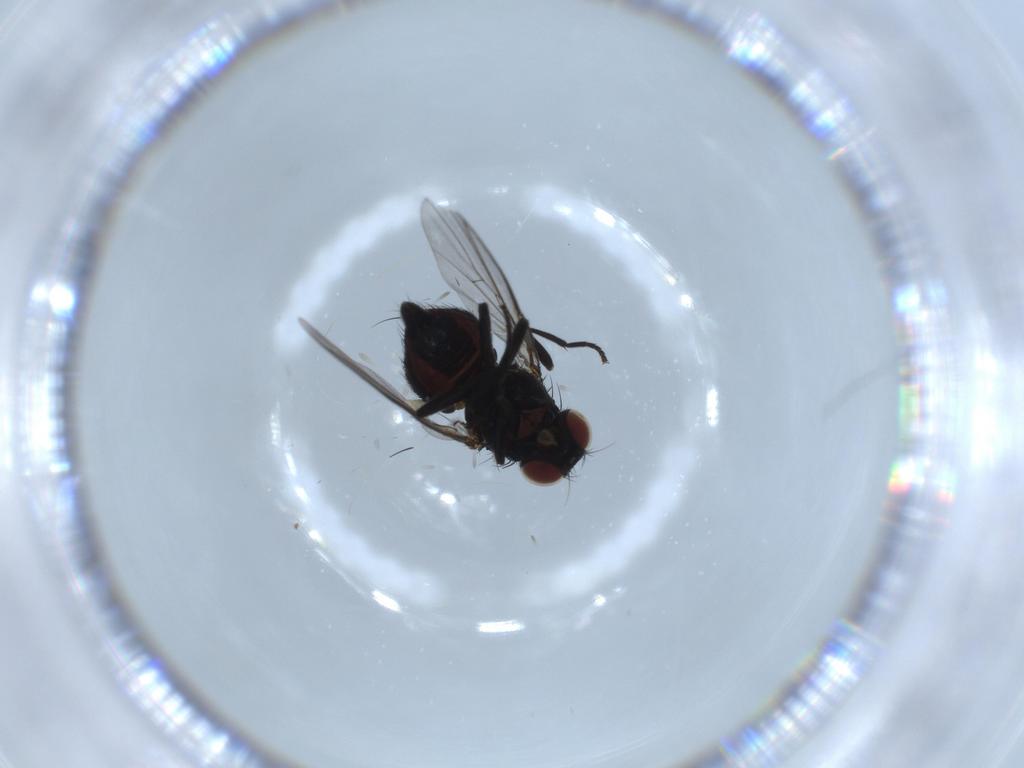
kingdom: Animalia
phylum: Arthropoda
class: Insecta
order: Diptera
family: Agromyzidae
